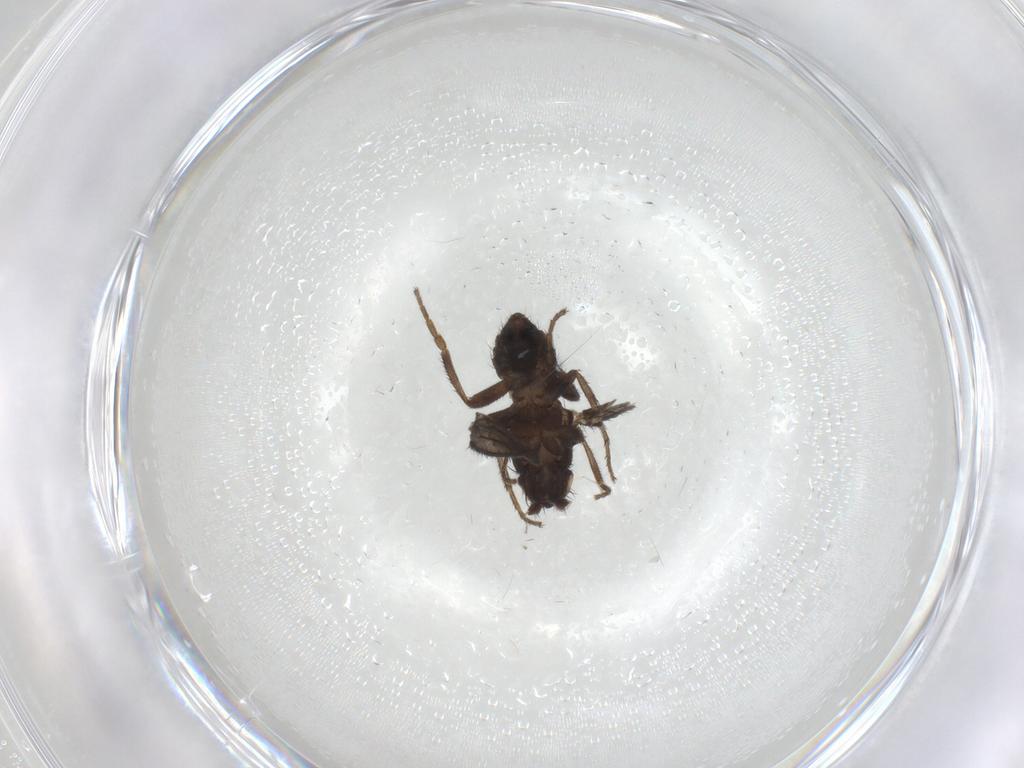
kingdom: Animalia
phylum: Arthropoda
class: Insecta
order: Diptera
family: Sphaeroceridae
